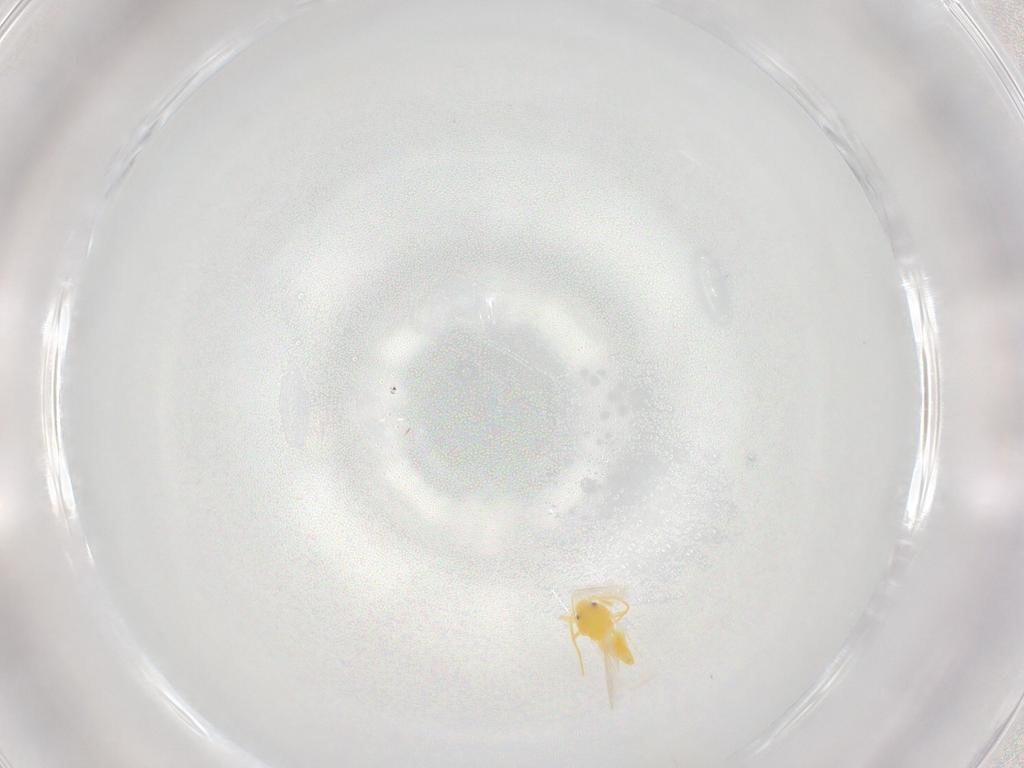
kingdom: Animalia
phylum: Arthropoda
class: Insecta
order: Hemiptera
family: Aleyrodidae
